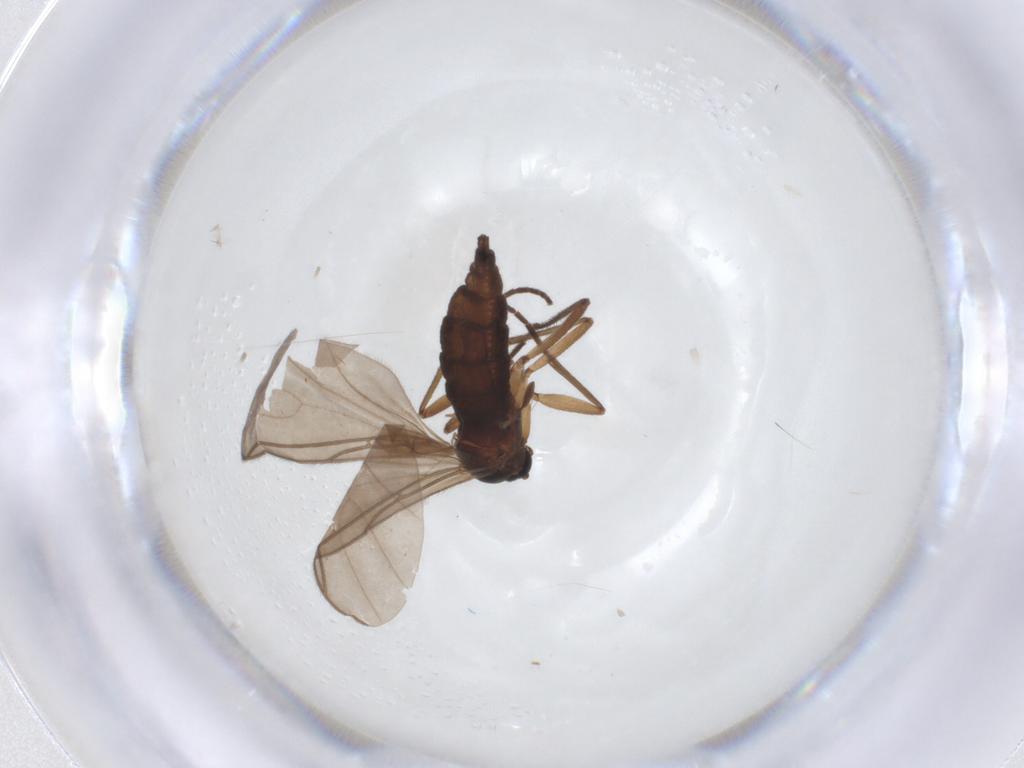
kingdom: Animalia
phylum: Arthropoda
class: Insecta
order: Diptera
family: Sciaridae
